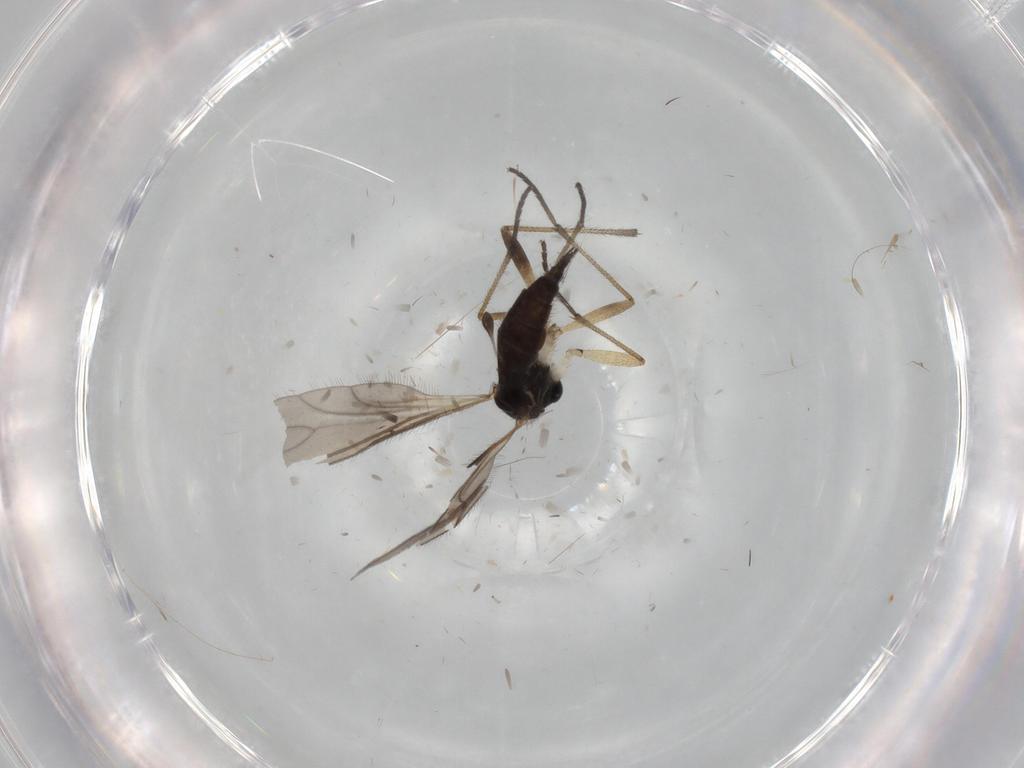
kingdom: Animalia
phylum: Arthropoda
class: Insecta
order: Diptera
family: Sciaridae
